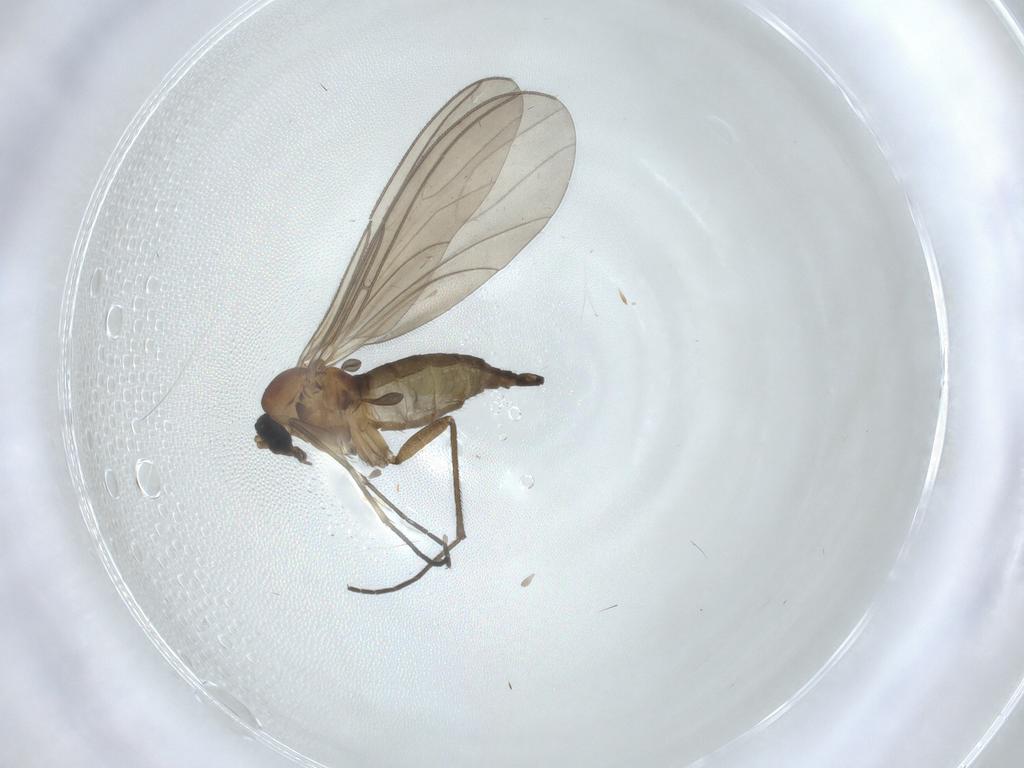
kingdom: Animalia
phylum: Arthropoda
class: Insecta
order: Diptera
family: Sciaridae
